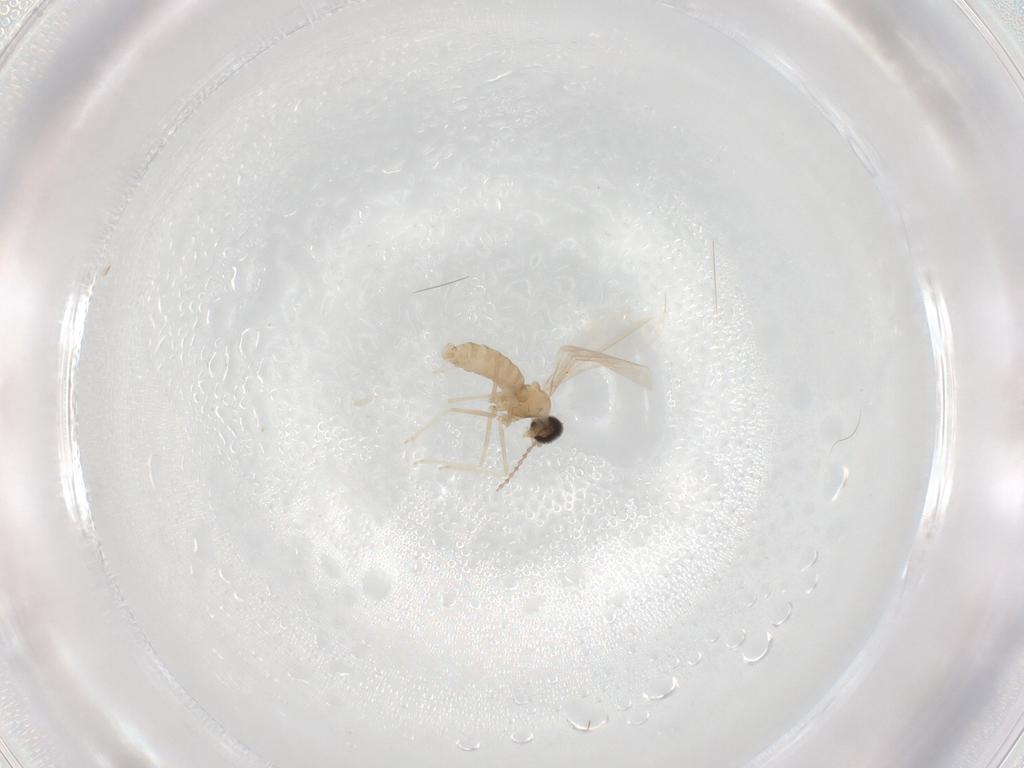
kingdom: Animalia
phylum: Arthropoda
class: Insecta
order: Diptera
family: Cecidomyiidae
